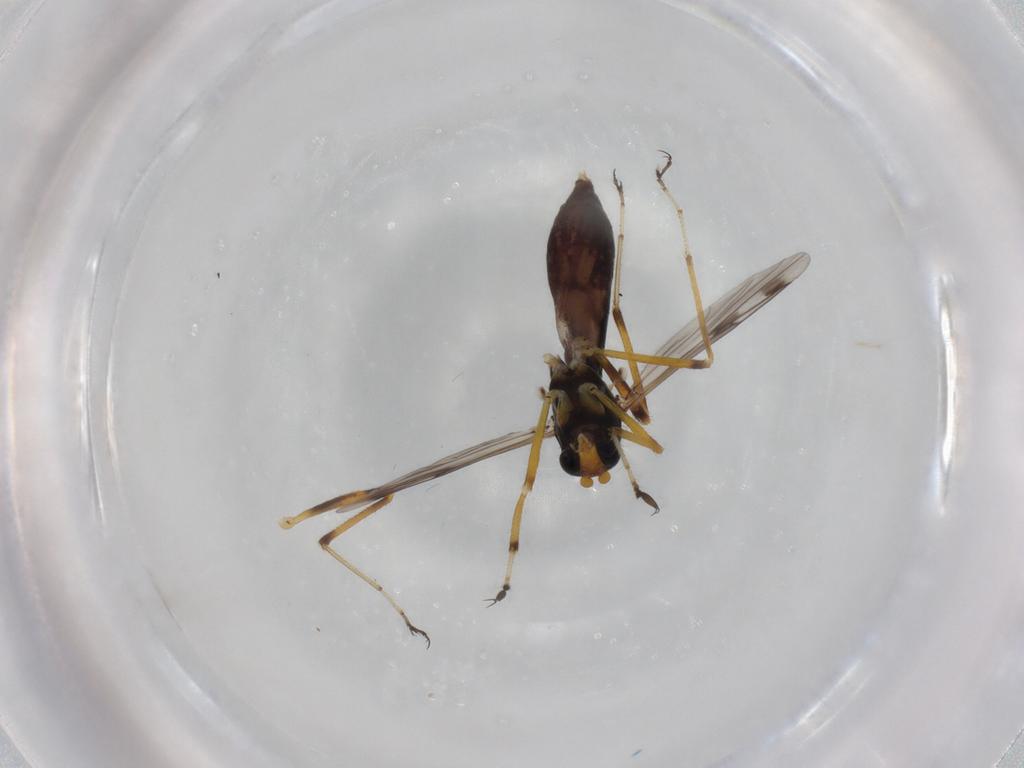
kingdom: Animalia
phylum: Arthropoda
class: Insecta
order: Diptera
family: Ceratopogonidae
